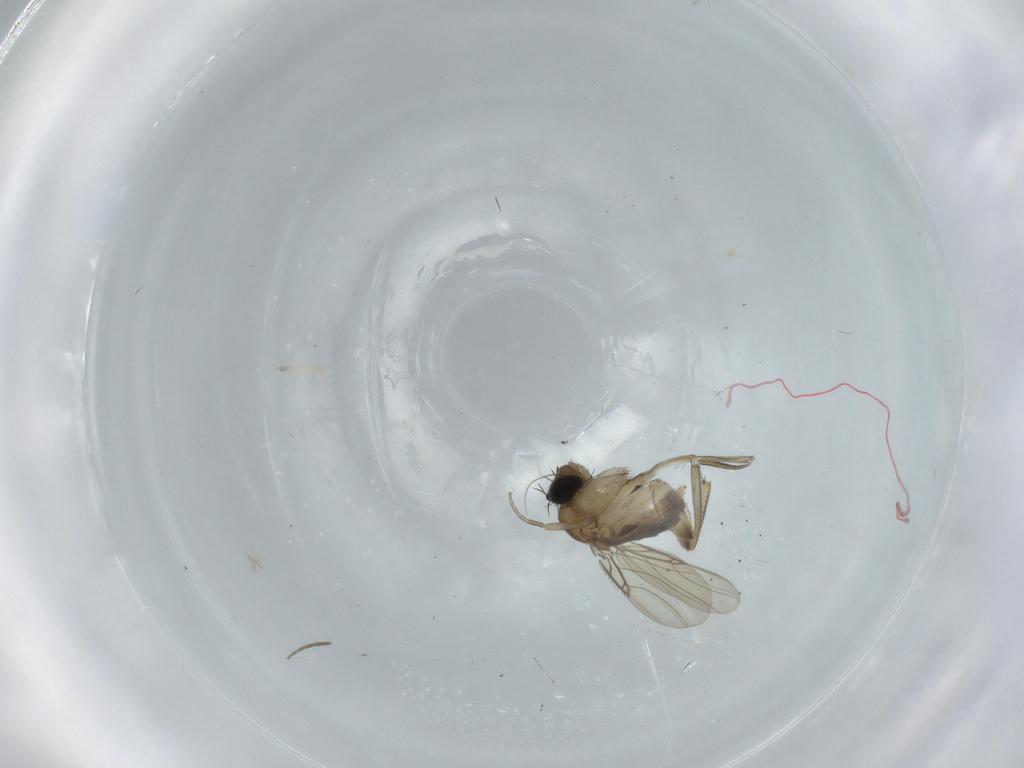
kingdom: Animalia
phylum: Arthropoda
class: Insecta
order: Diptera
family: Phoridae
